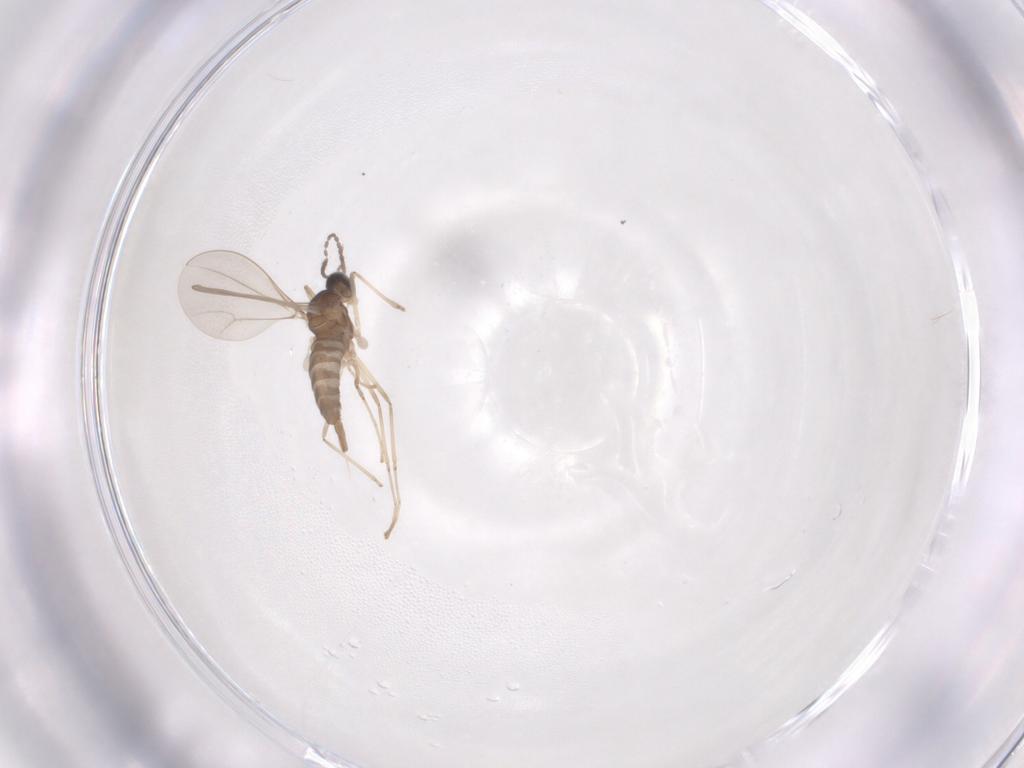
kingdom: Animalia
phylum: Arthropoda
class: Insecta
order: Diptera
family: Cecidomyiidae
